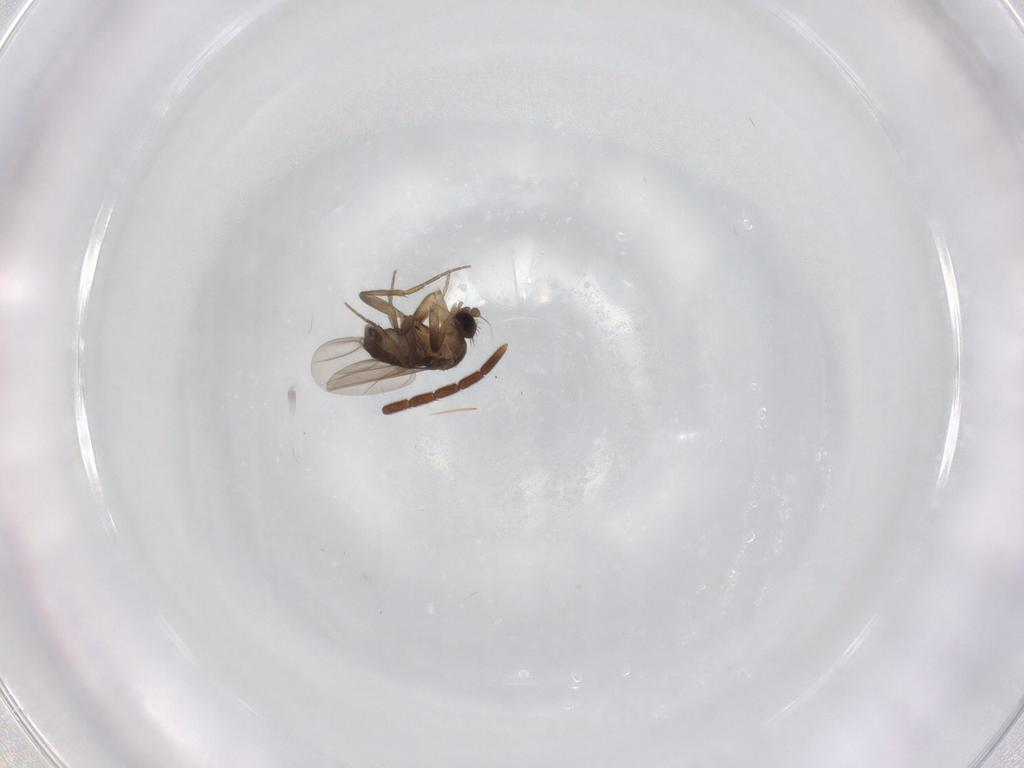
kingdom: Animalia
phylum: Arthropoda
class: Insecta
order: Diptera
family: Phoridae
